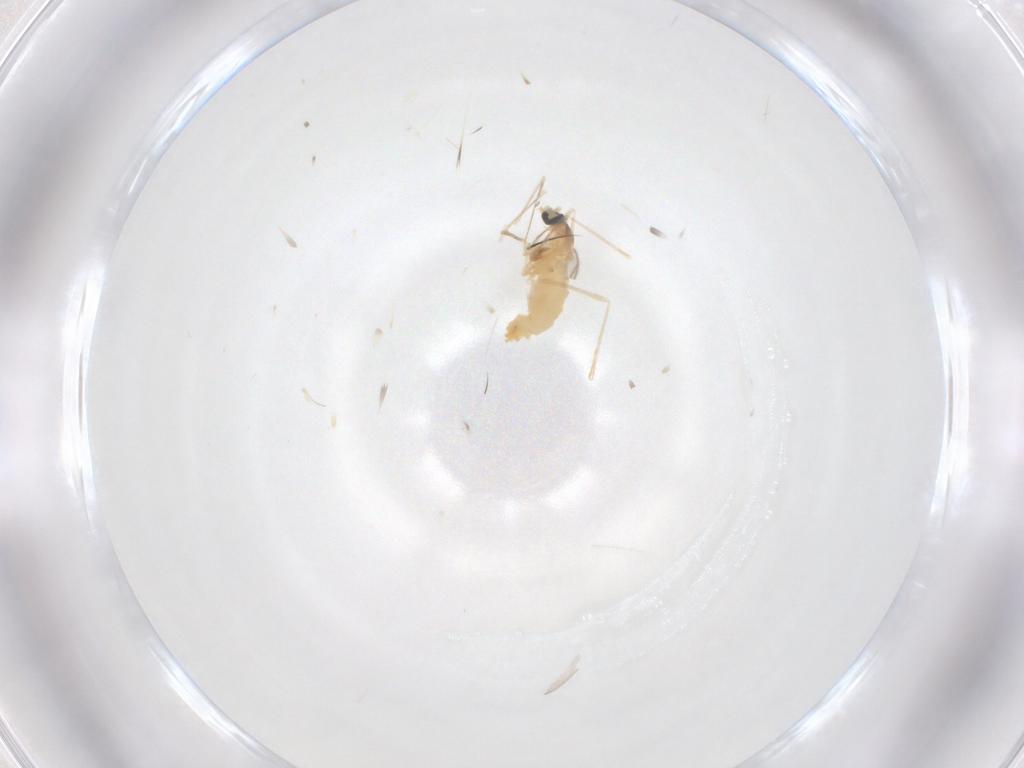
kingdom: Animalia
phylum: Arthropoda
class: Insecta
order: Diptera
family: Cecidomyiidae
